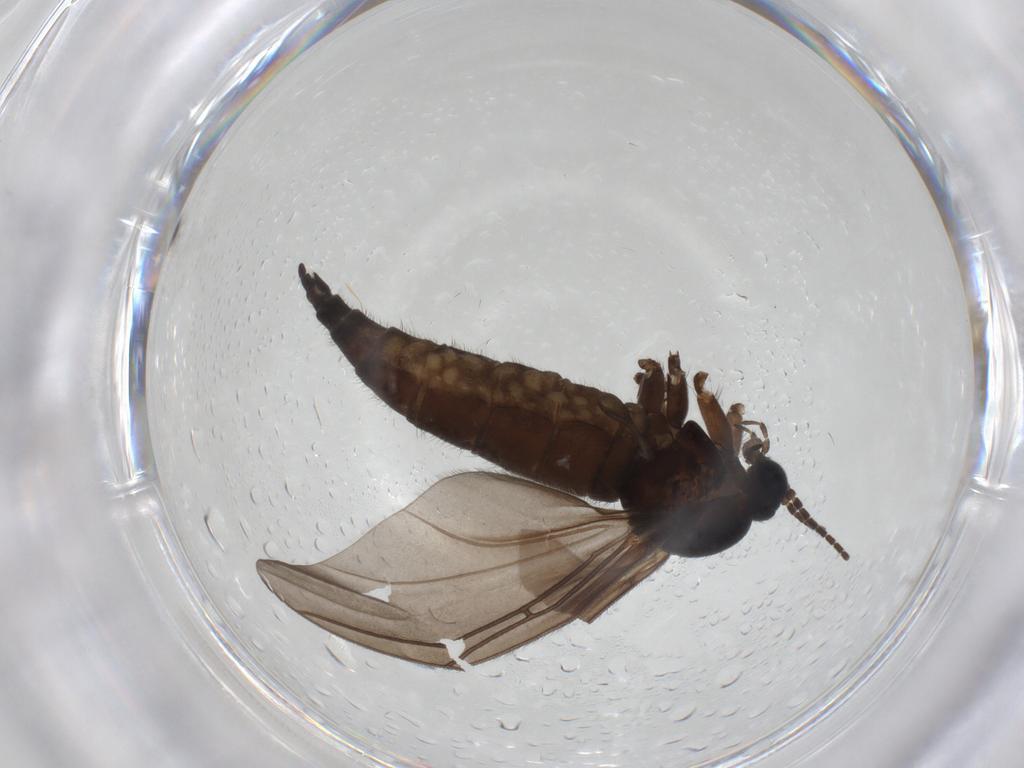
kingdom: Animalia
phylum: Arthropoda
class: Insecta
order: Diptera
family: Sciaridae
